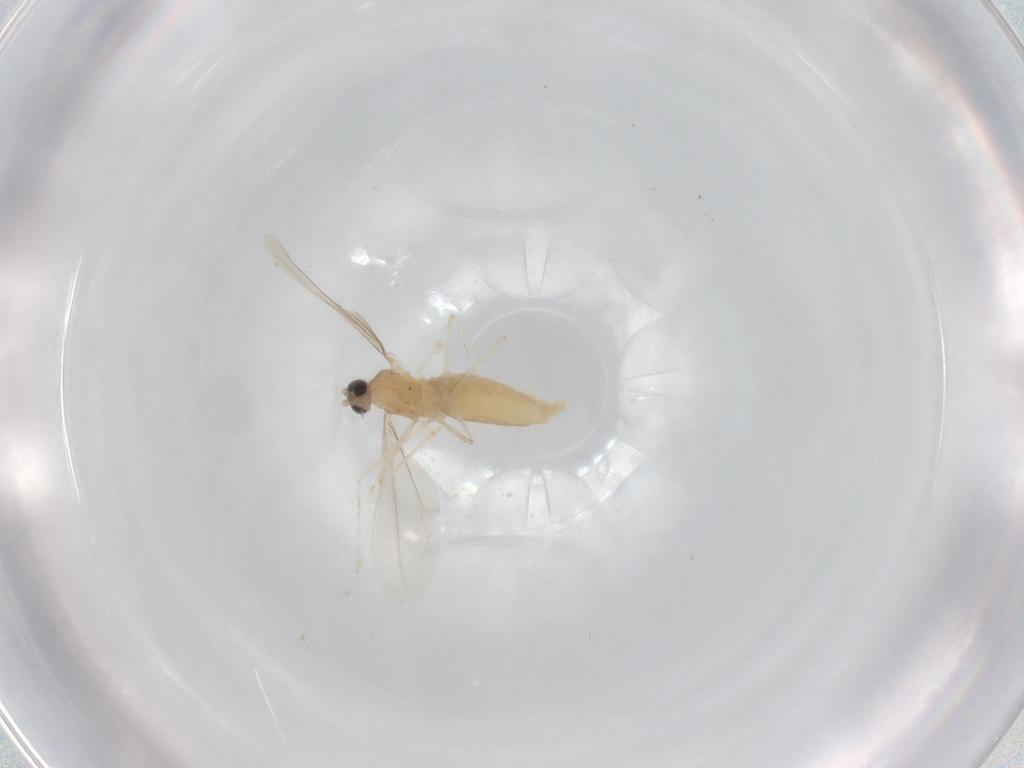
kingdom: Animalia
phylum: Arthropoda
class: Insecta
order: Diptera
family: Cecidomyiidae
